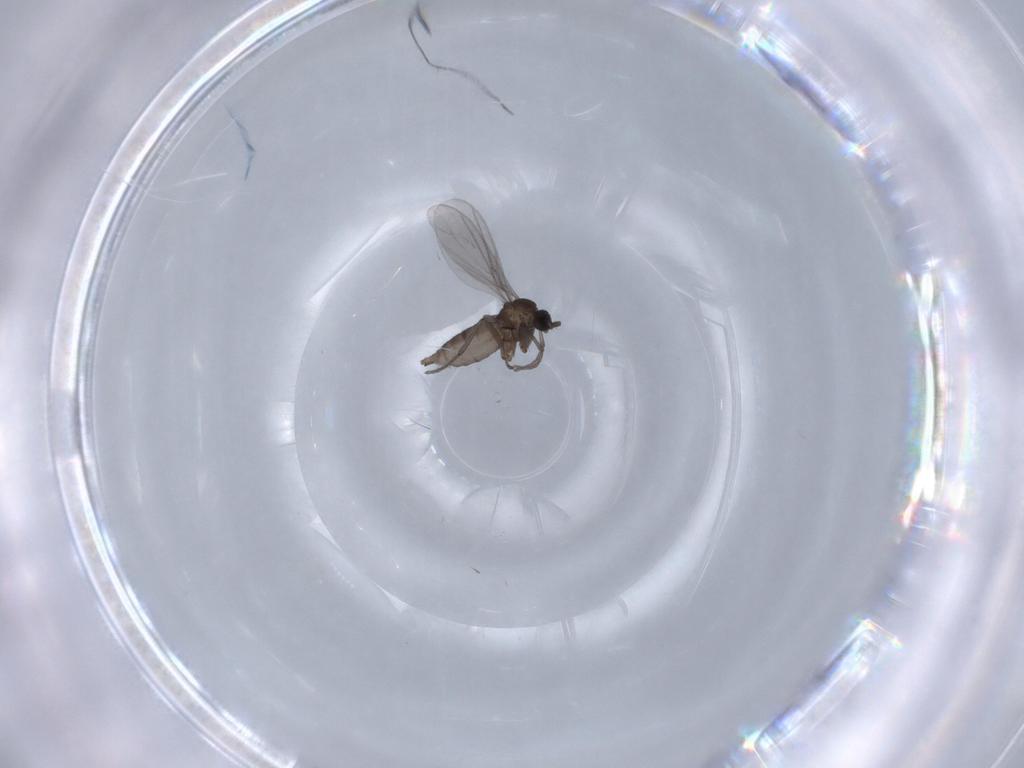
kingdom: Animalia
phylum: Arthropoda
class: Insecta
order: Diptera
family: Sciaridae
